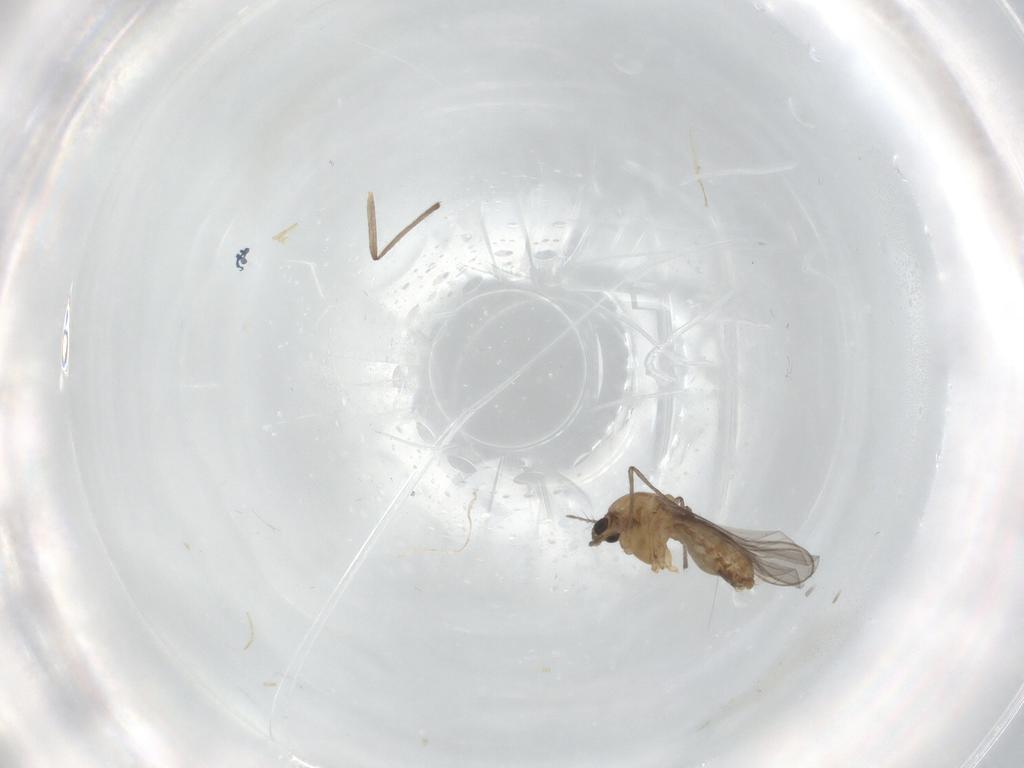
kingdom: Animalia
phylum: Arthropoda
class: Insecta
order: Diptera
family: Chironomidae
